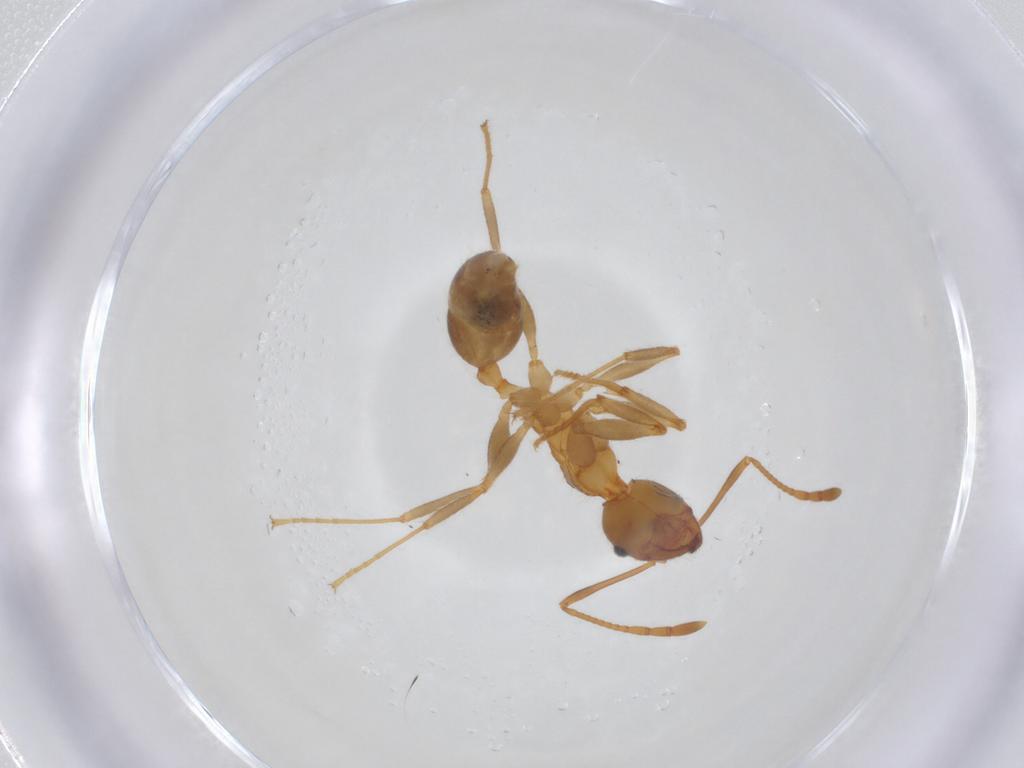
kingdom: Animalia
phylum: Arthropoda
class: Insecta
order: Hymenoptera
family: Formicidae
